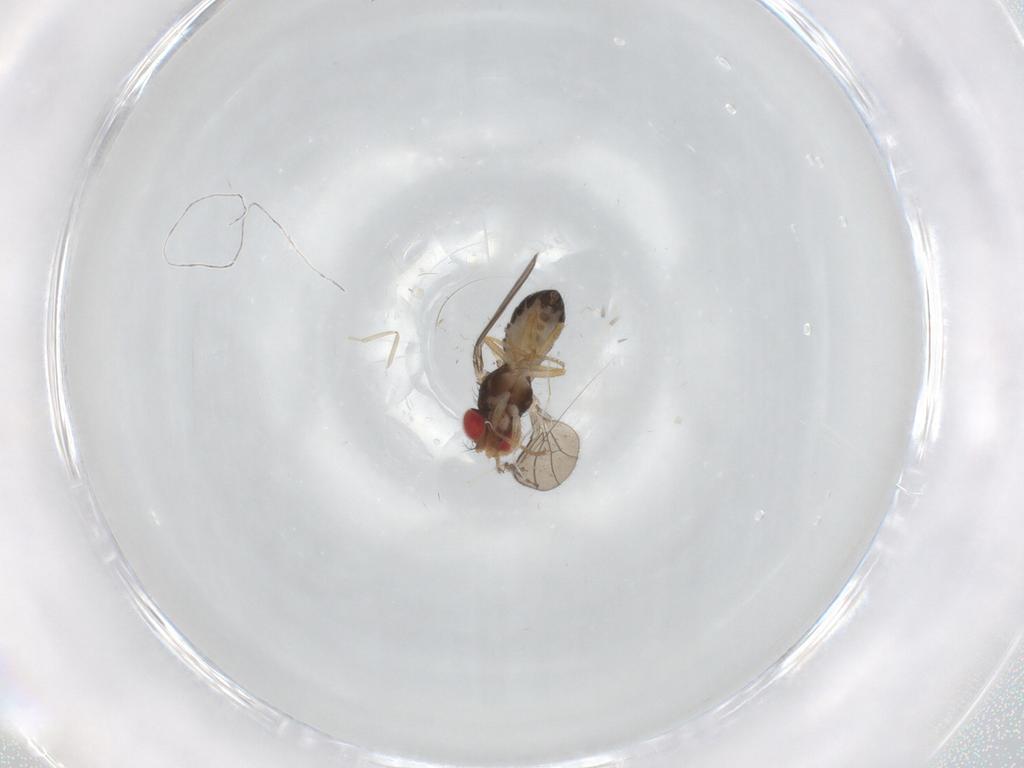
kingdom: Animalia
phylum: Arthropoda
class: Insecta
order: Diptera
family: Drosophilidae
